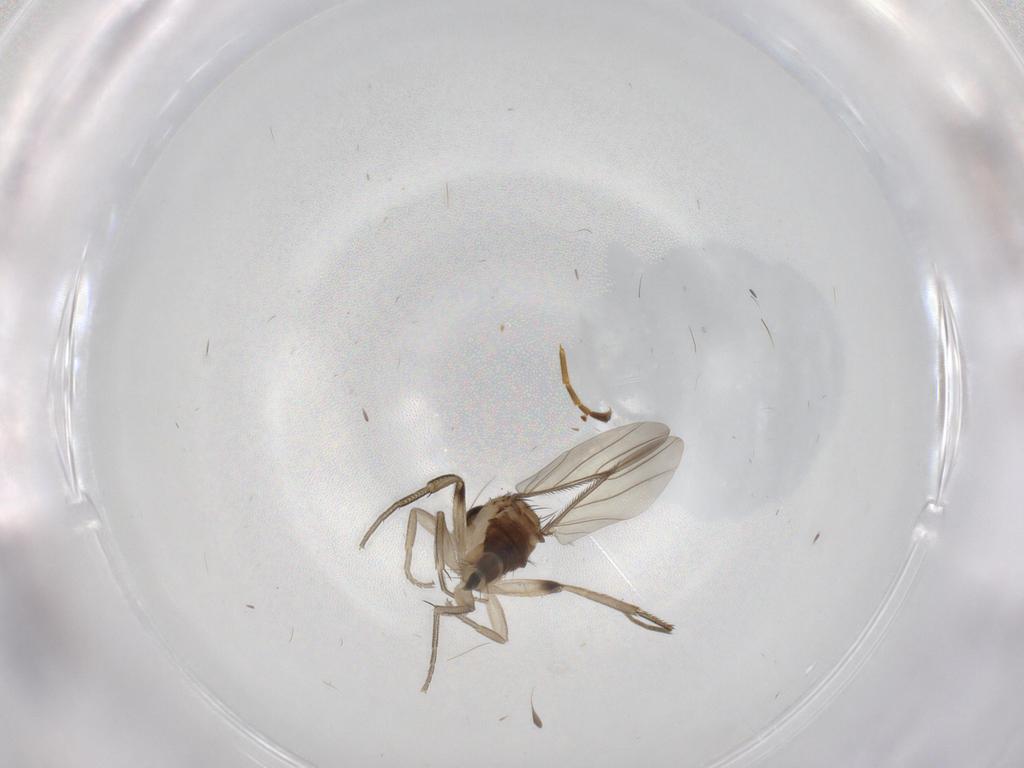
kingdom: Animalia
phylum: Arthropoda
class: Insecta
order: Diptera
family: Phoridae
